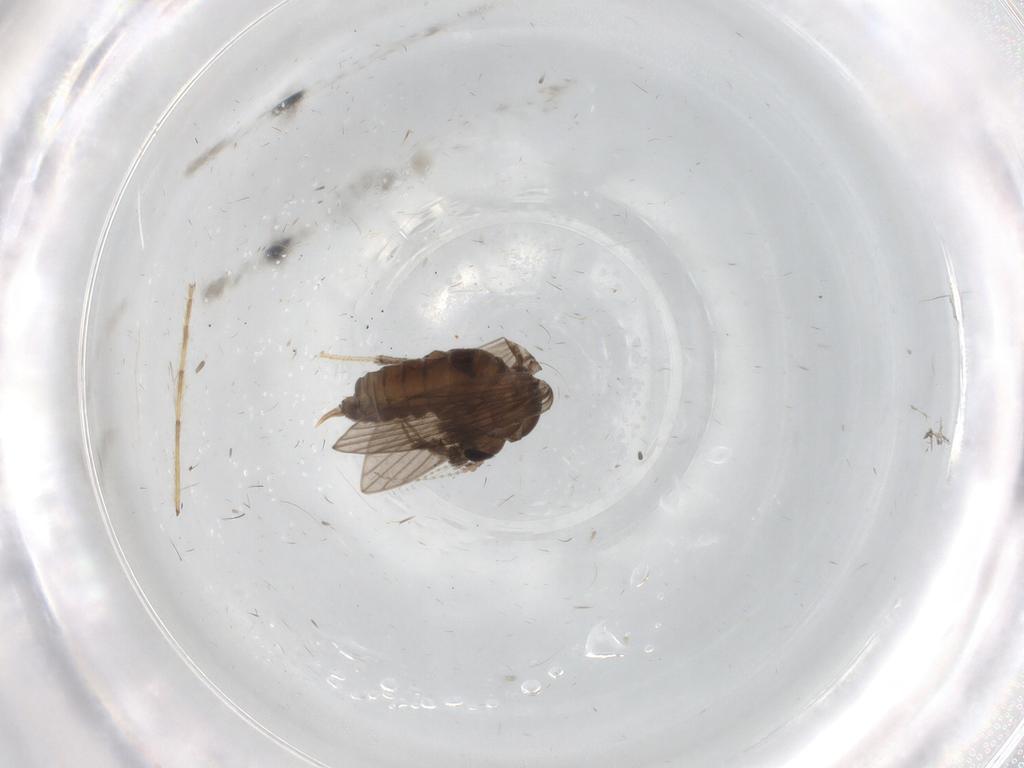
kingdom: Animalia
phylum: Arthropoda
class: Insecta
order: Diptera
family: Psychodidae
